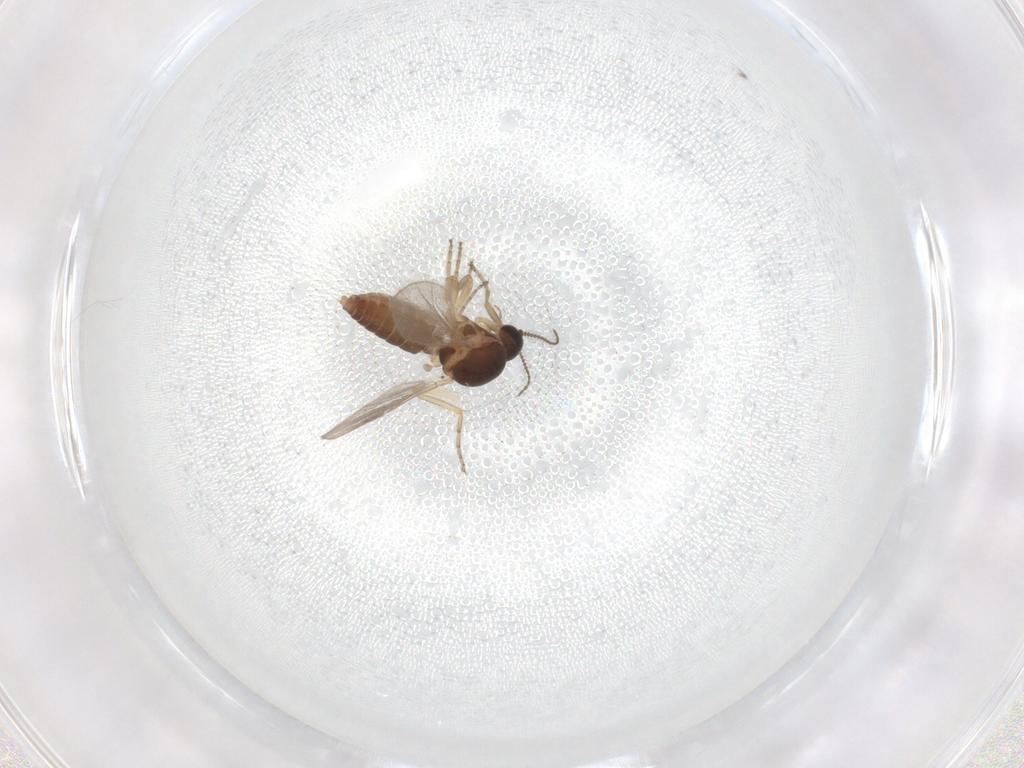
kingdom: Animalia
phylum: Arthropoda
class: Insecta
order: Diptera
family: Ceratopogonidae
